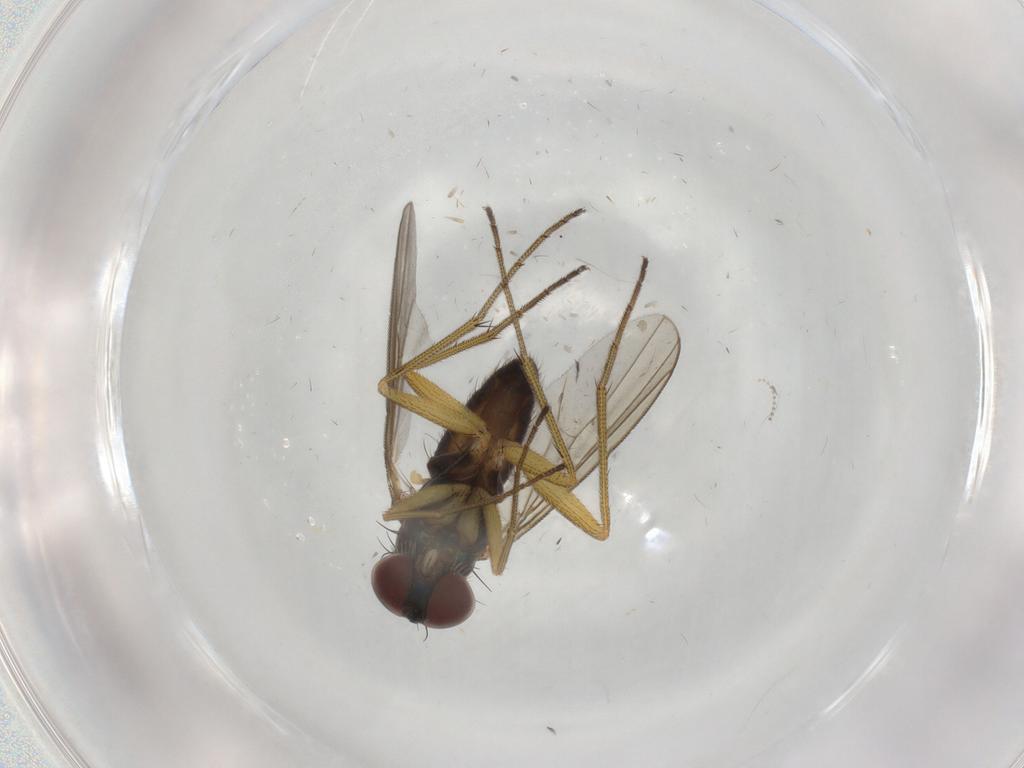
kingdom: Animalia
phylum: Arthropoda
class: Insecta
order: Diptera
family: Dolichopodidae
